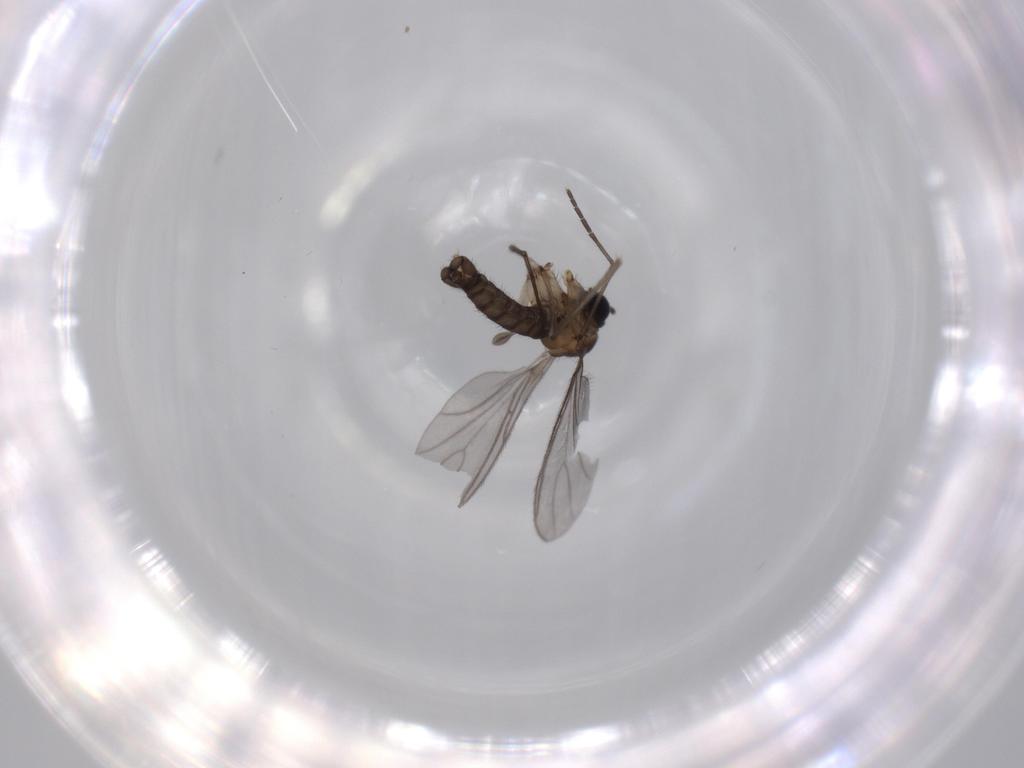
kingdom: Animalia
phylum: Arthropoda
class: Insecta
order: Diptera
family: Sciaridae
